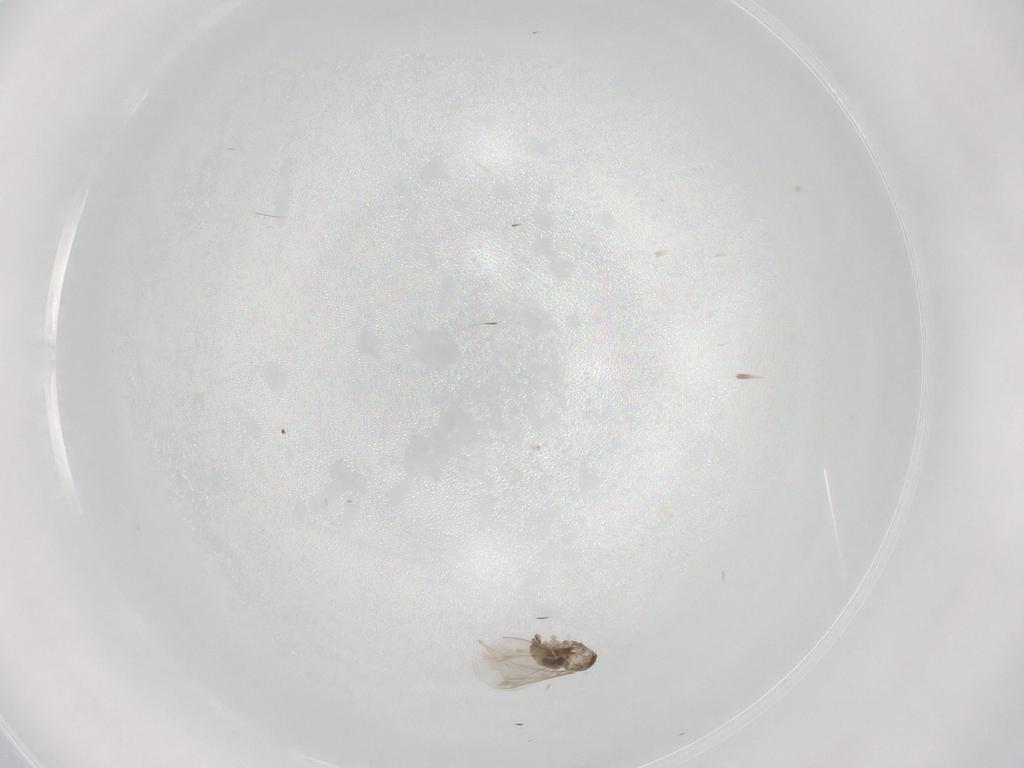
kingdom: Animalia
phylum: Arthropoda
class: Insecta
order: Diptera
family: Cecidomyiidae
